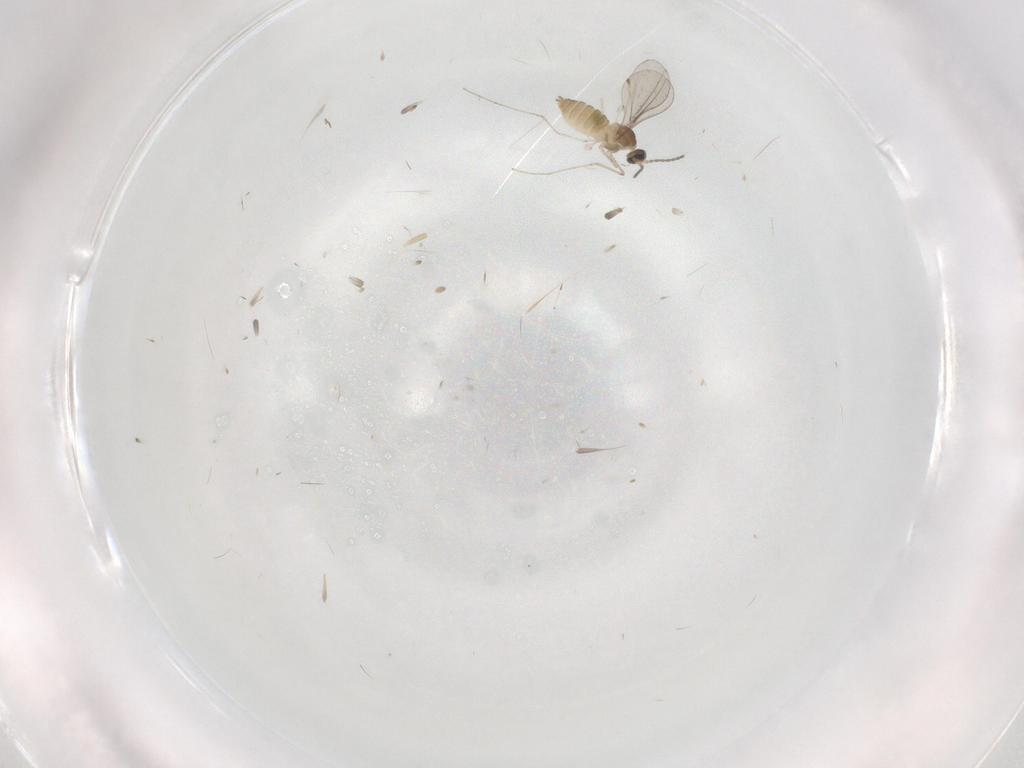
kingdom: Animalia
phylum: Arthropoda
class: Insecta
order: Diptera
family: Cecidomyiidae
